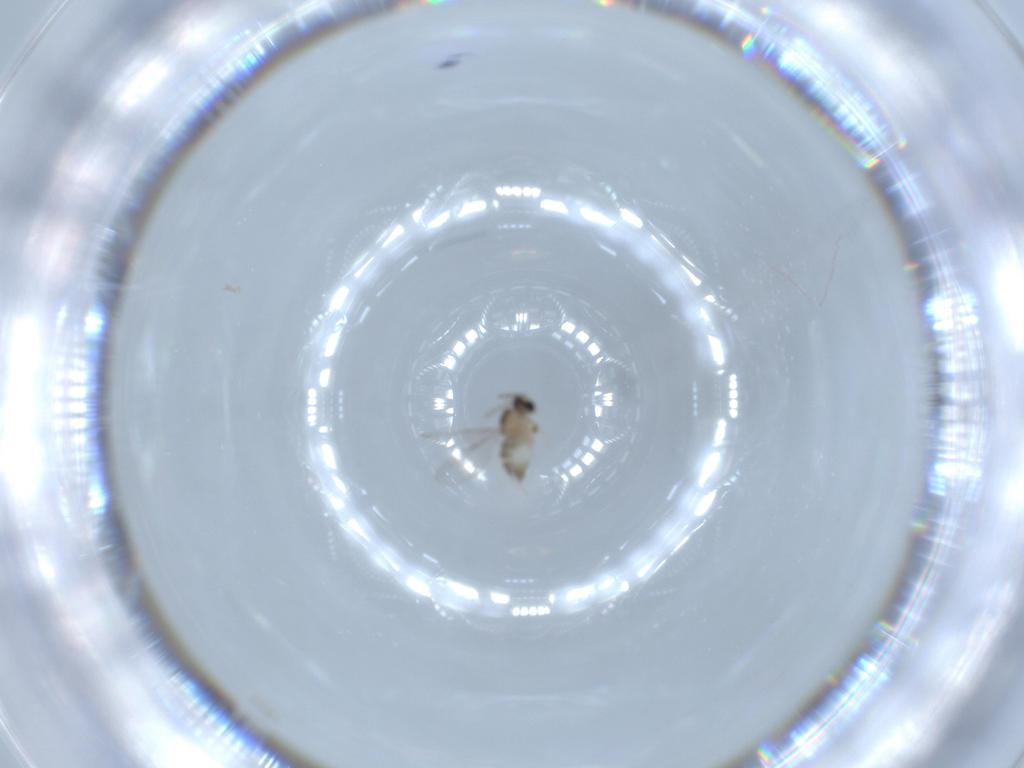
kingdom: Animalia
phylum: Arthropoda
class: Insecta
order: Diptera
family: Cecidomyiidae
